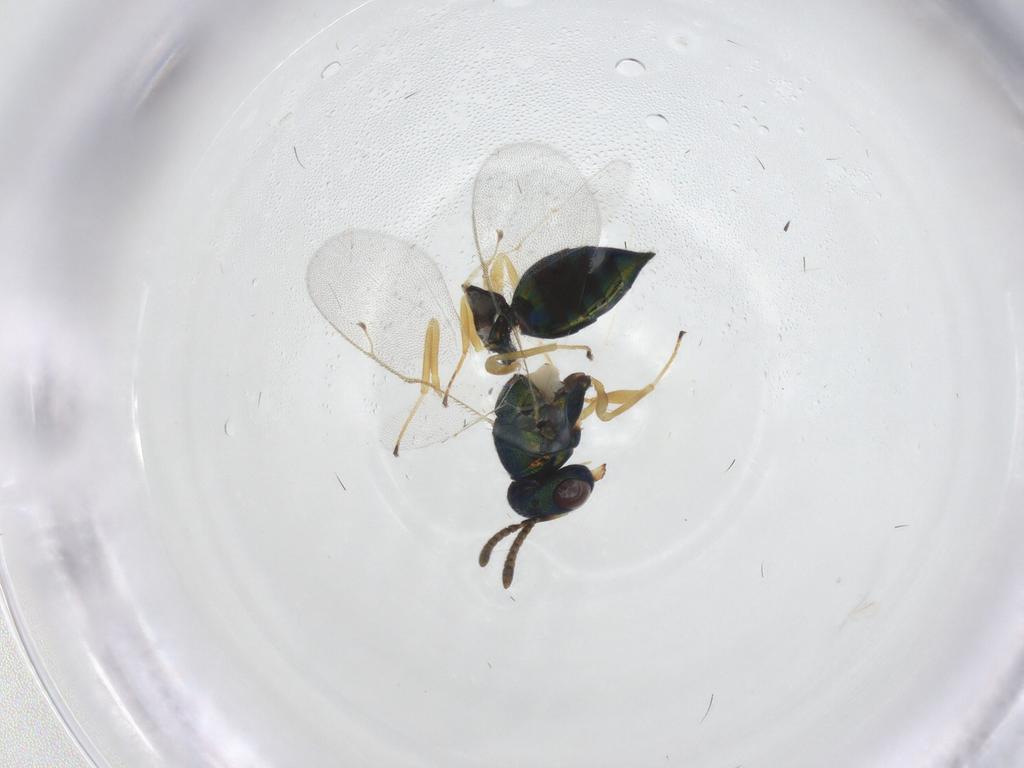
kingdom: Animalia
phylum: Arthropoda
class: Insecta
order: Hymenoptera
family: Pteromalidae
